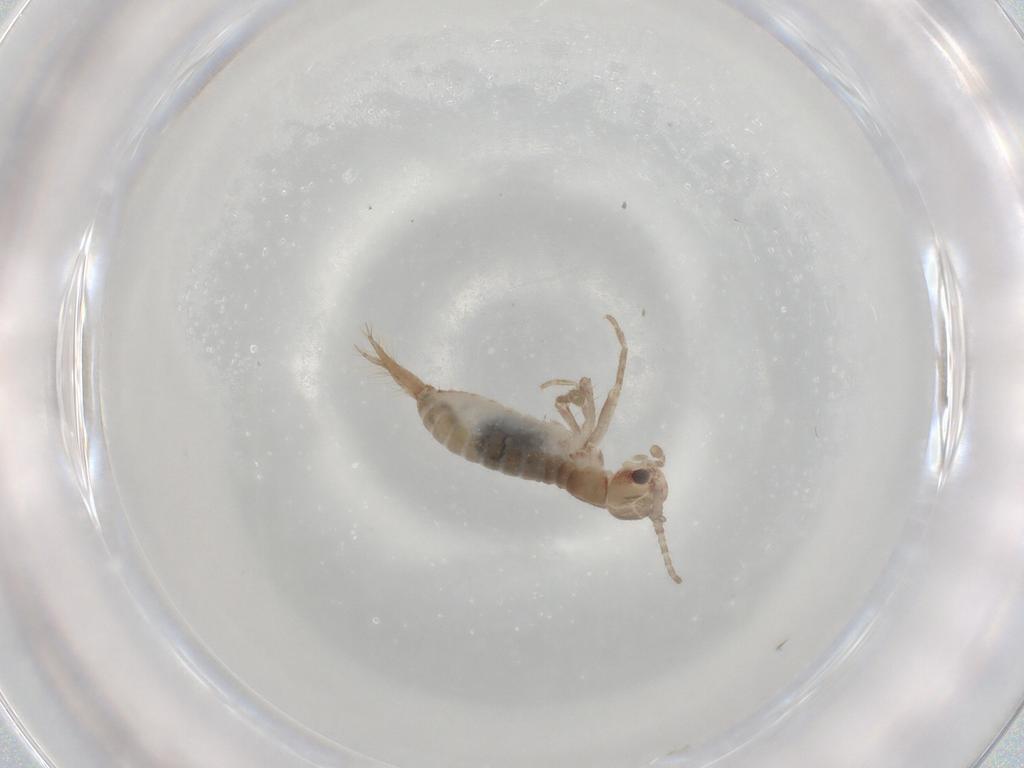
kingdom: Animalia
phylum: Arthropoda
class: Insecta
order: Orthoptera
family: Mogoplistidae
